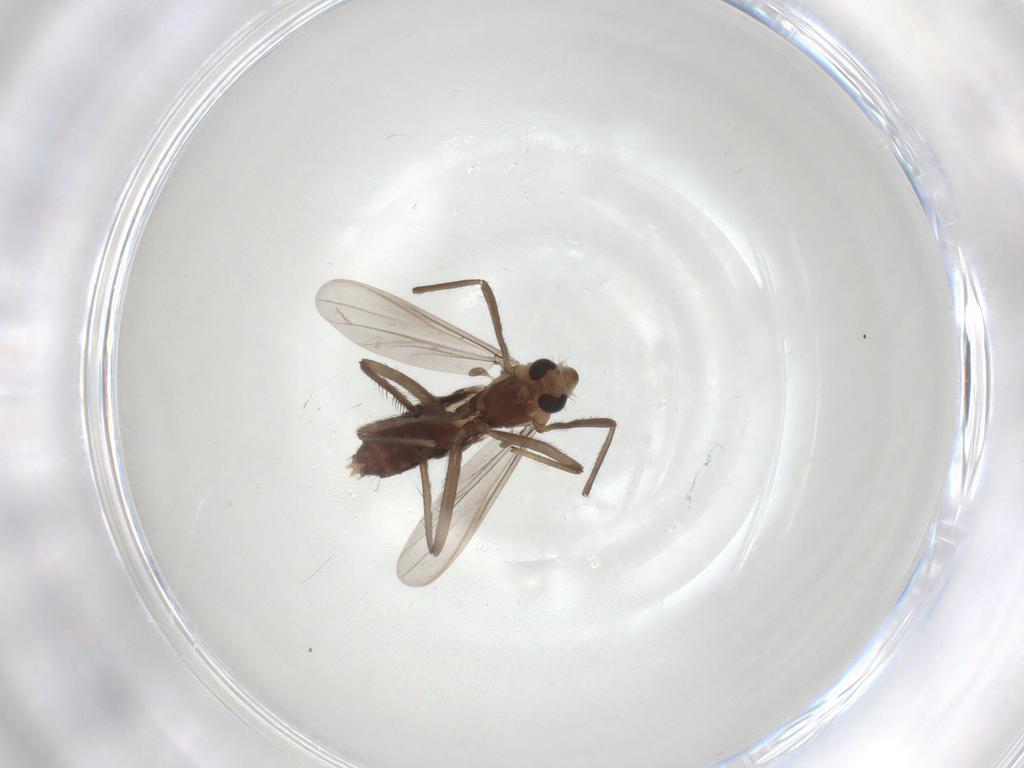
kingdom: Animalia
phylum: Arthropoda
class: Insecta
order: Diptera
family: Chironomidae
